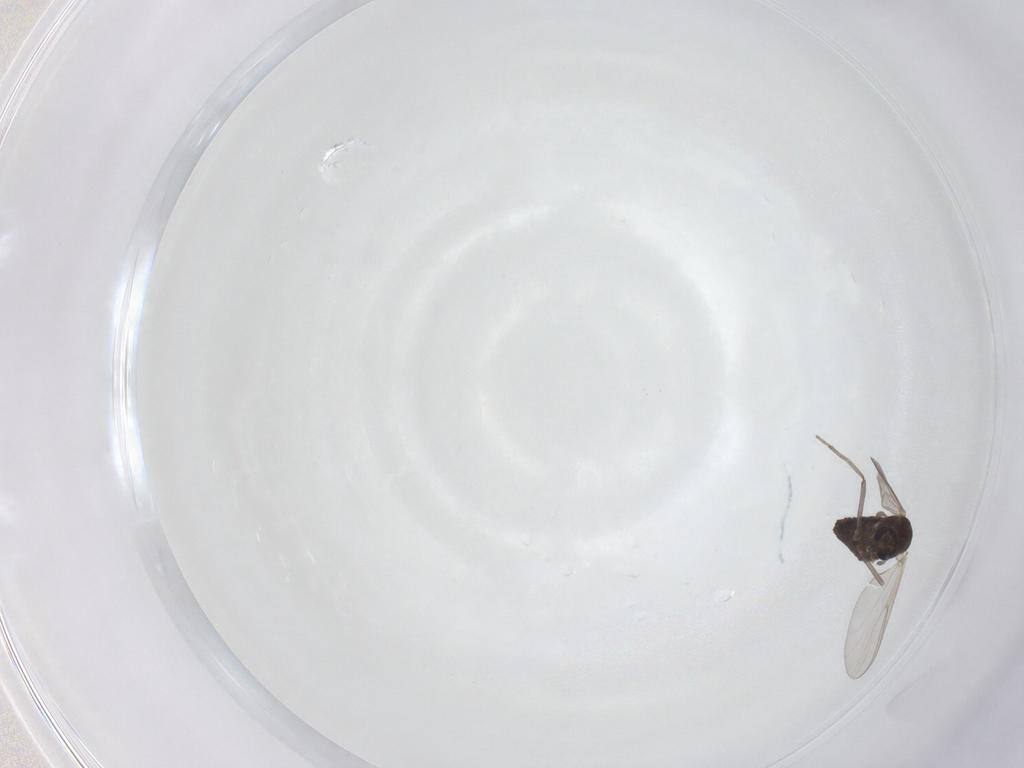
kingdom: Animalia
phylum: Arthropoda
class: Insecta
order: Diptera
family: Chironomidae
